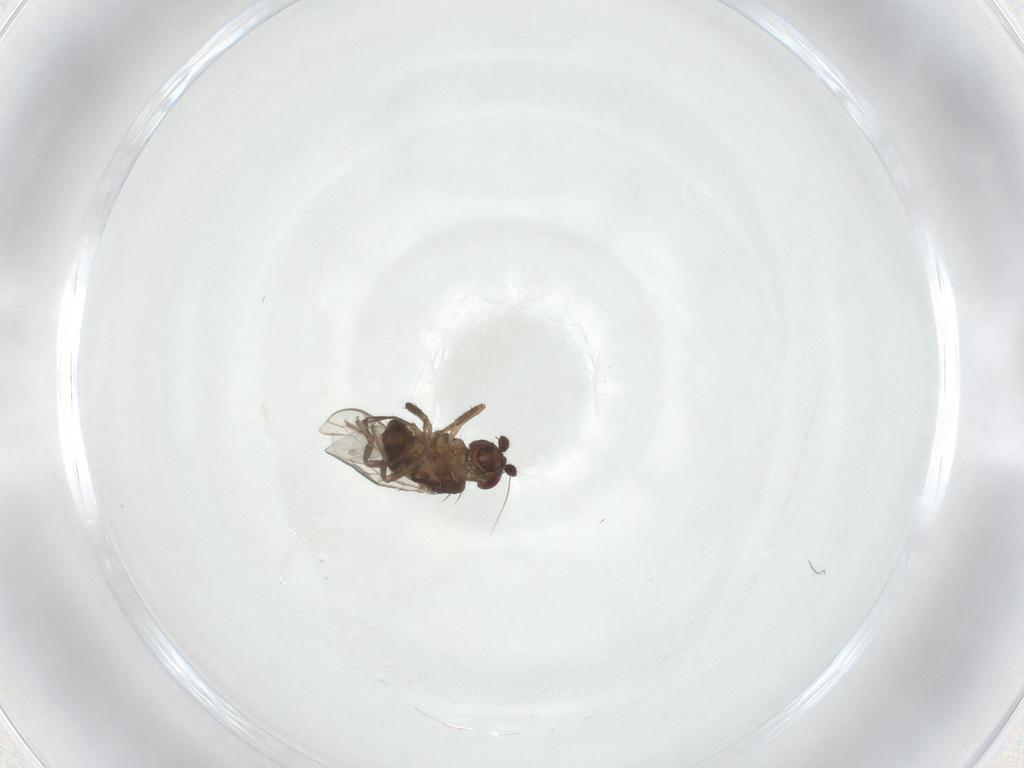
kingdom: Animalia
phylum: Arthropoda
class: Insecta
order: Diptera
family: Sphaeroceridae
